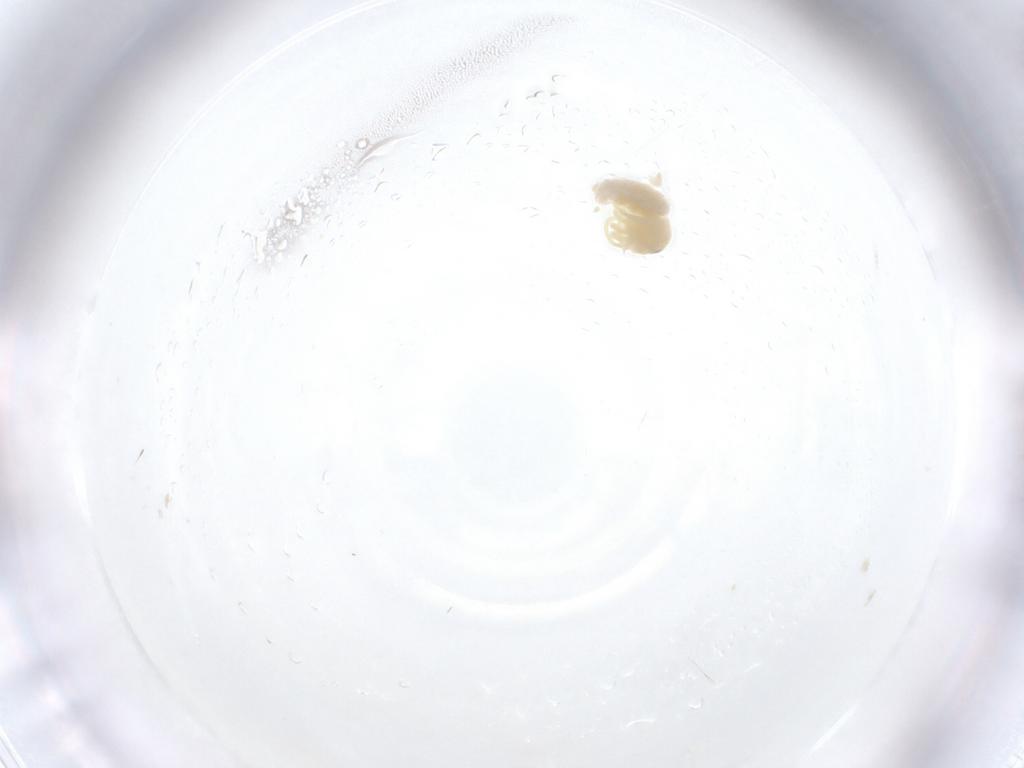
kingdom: Animalia
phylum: Arthropoda
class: Arachnida
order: Araneae
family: Pholcidae
